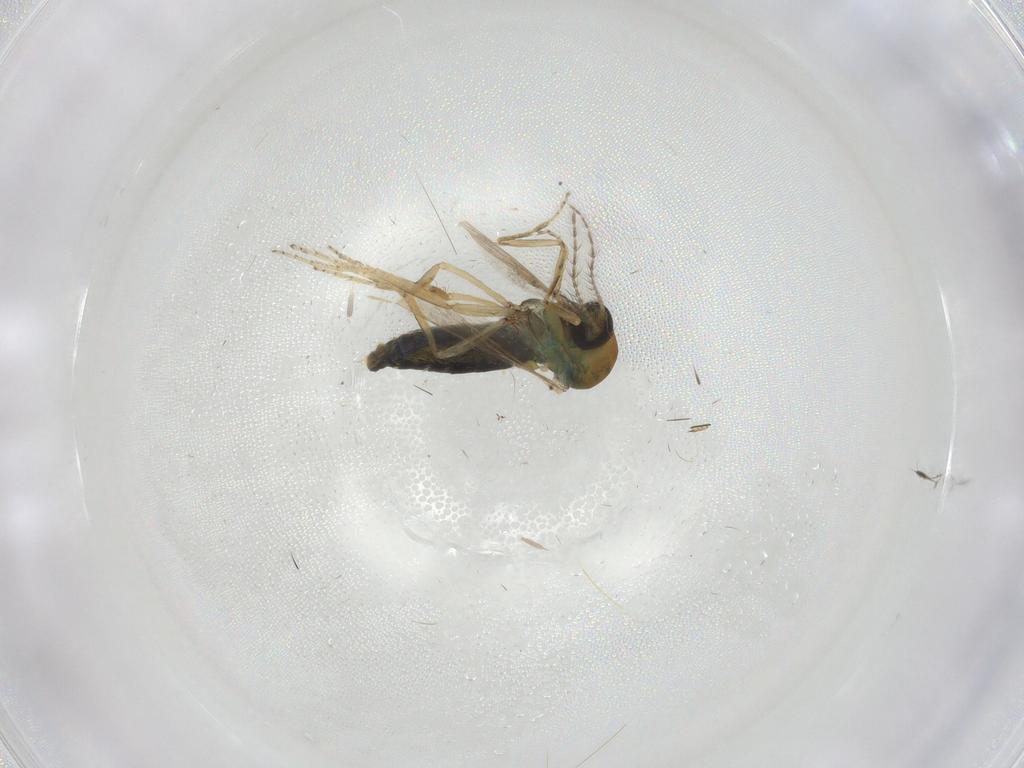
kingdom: Animalia
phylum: Arthropoda
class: Insecta
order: Diptera
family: Ceratopogonidae
